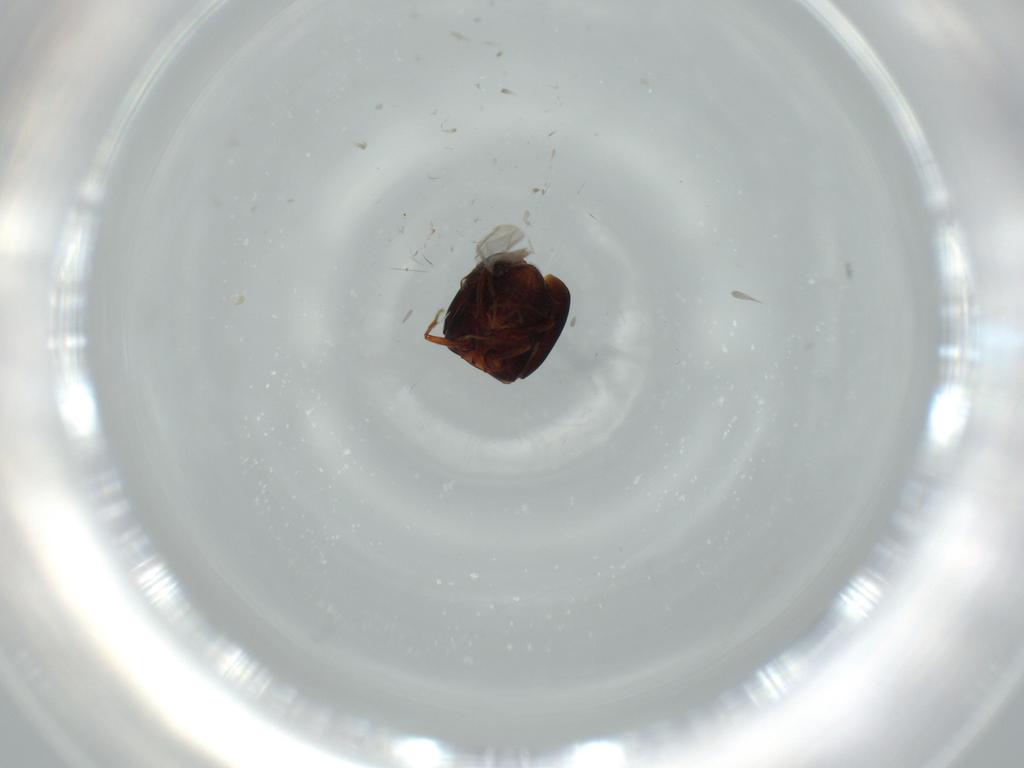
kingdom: Animalia
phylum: Arthropoda
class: Insecta
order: Coleoptera
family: Staphylinidae
